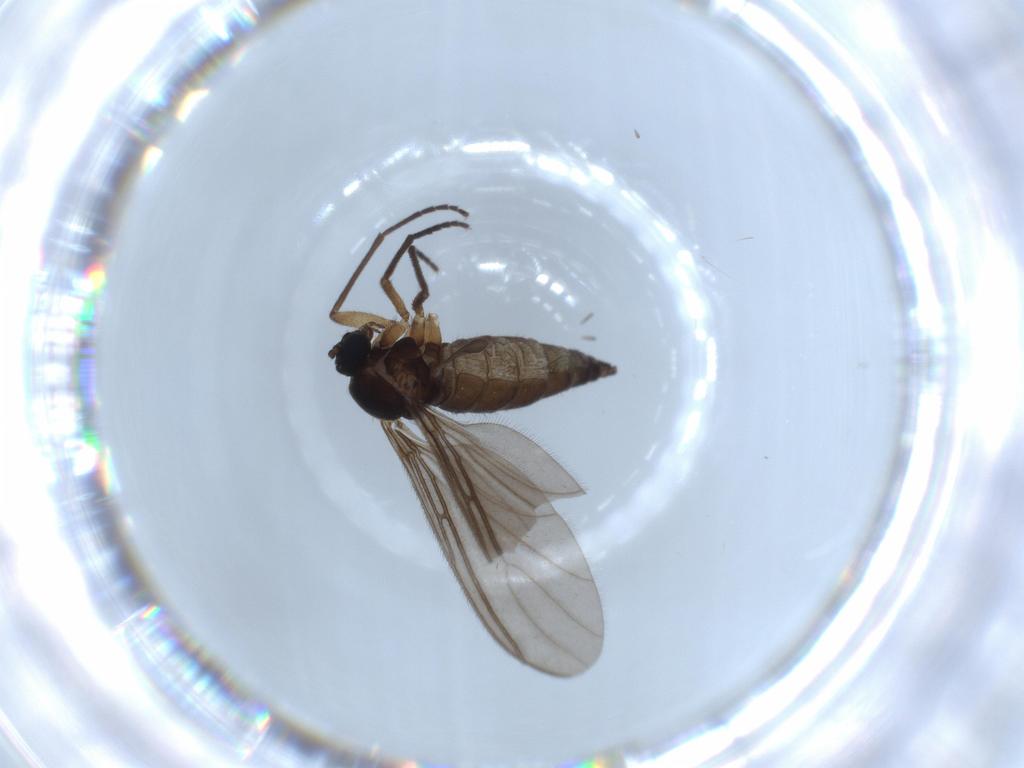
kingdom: Animalia
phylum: Arthropoda
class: Insecta
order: Diptera
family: Sciaridae
